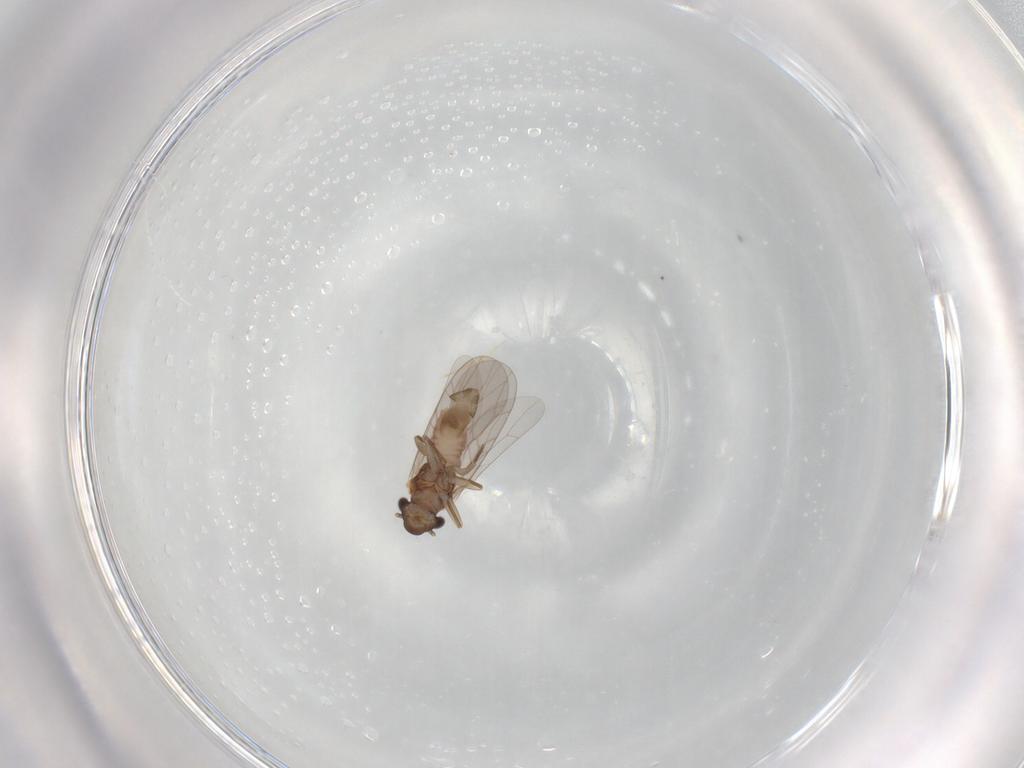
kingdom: Animalia
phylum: Arthropoda
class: Insecta
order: Psocodea
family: Lepidopsocidae
